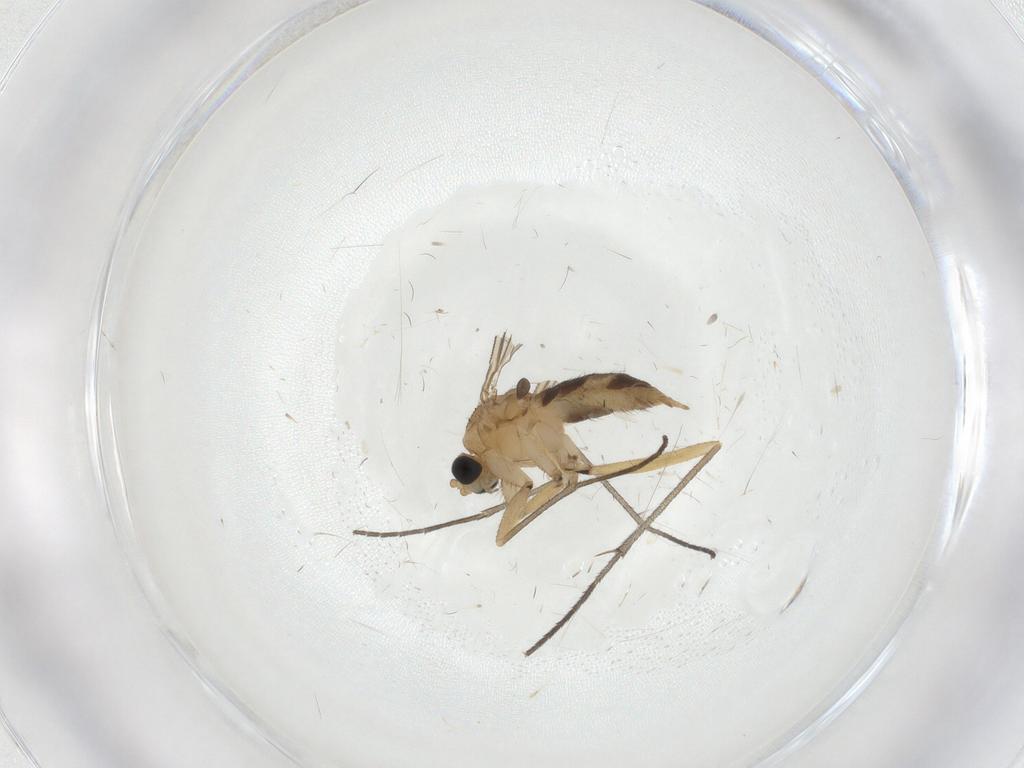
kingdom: Animalia
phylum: Arthropoda
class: Insecta
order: Diptera
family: Sciaridae
